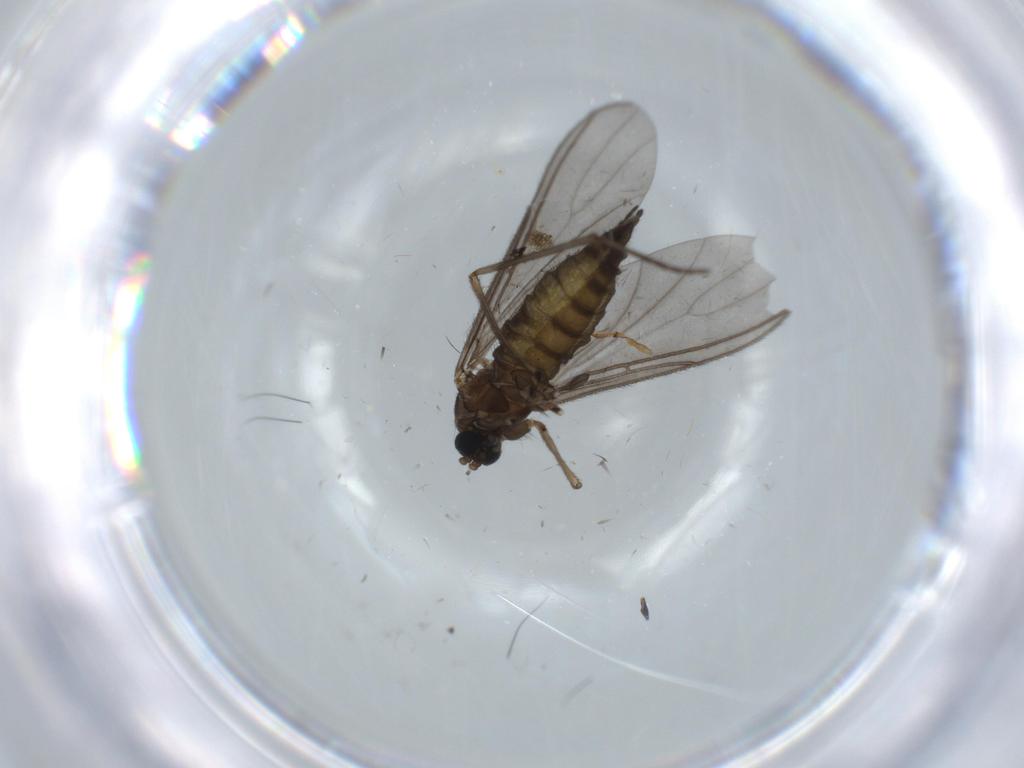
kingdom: Animalia
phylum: Arthropoda
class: Insecta
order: Diptera
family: Sciaridae
